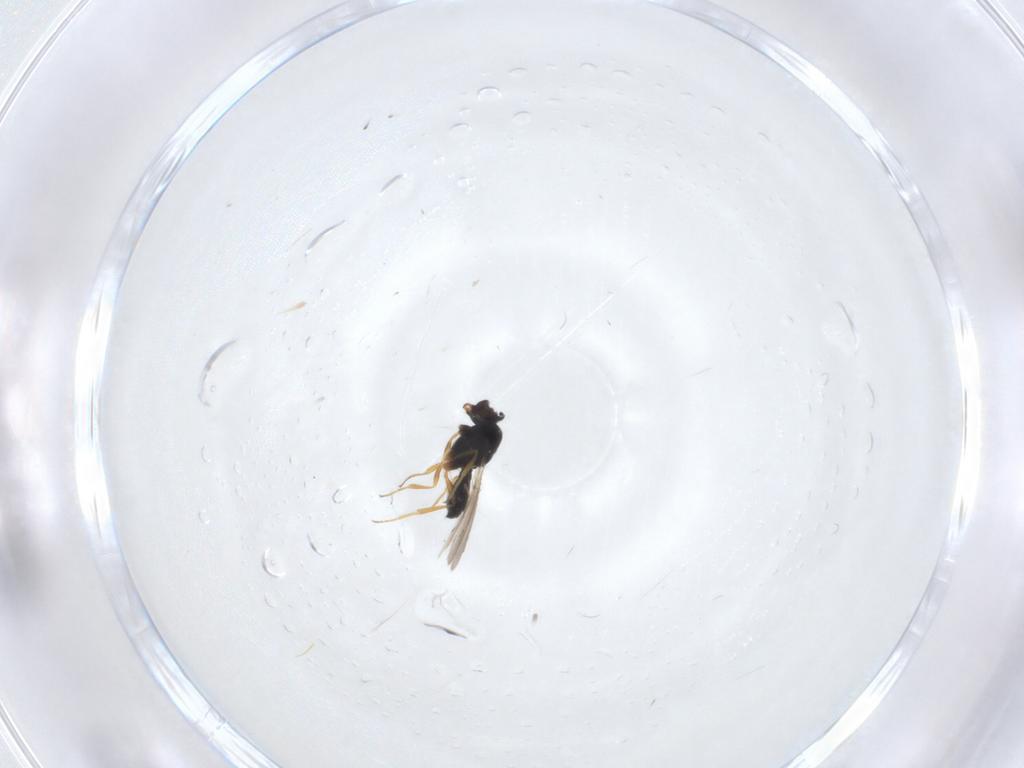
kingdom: Animalia
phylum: Arthropoda
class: Insecta
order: Hymenoptera
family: Scelionidae
